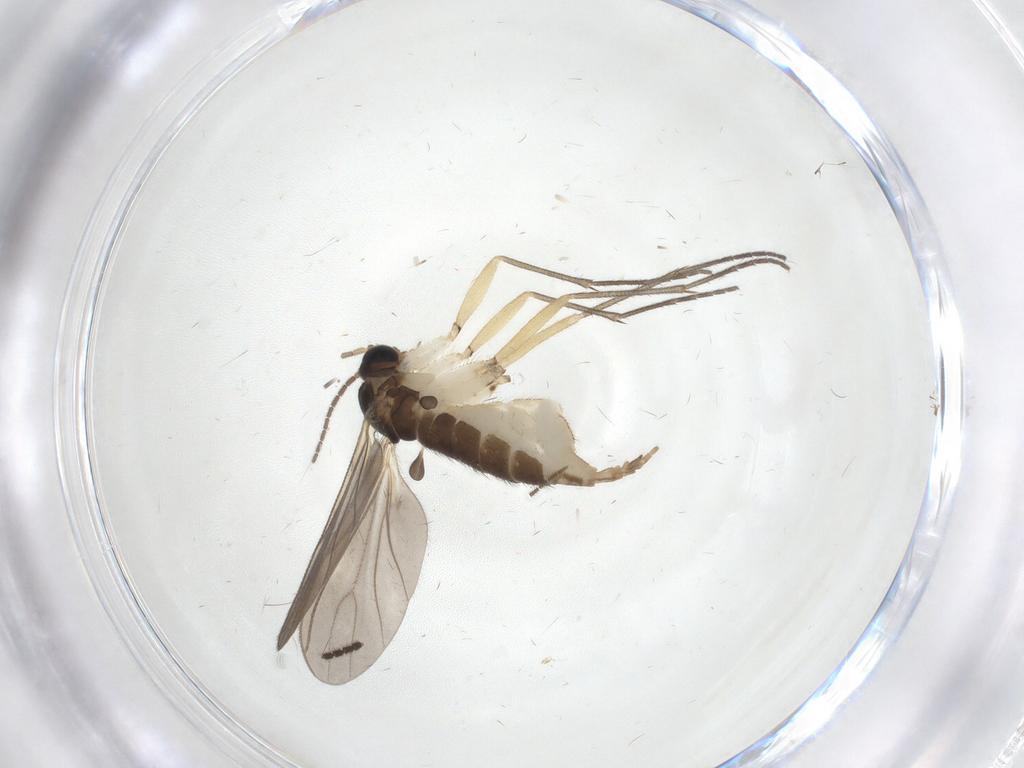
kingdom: Animalia
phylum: Arthropoda
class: Insecta
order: Diptera
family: Sciaridae
